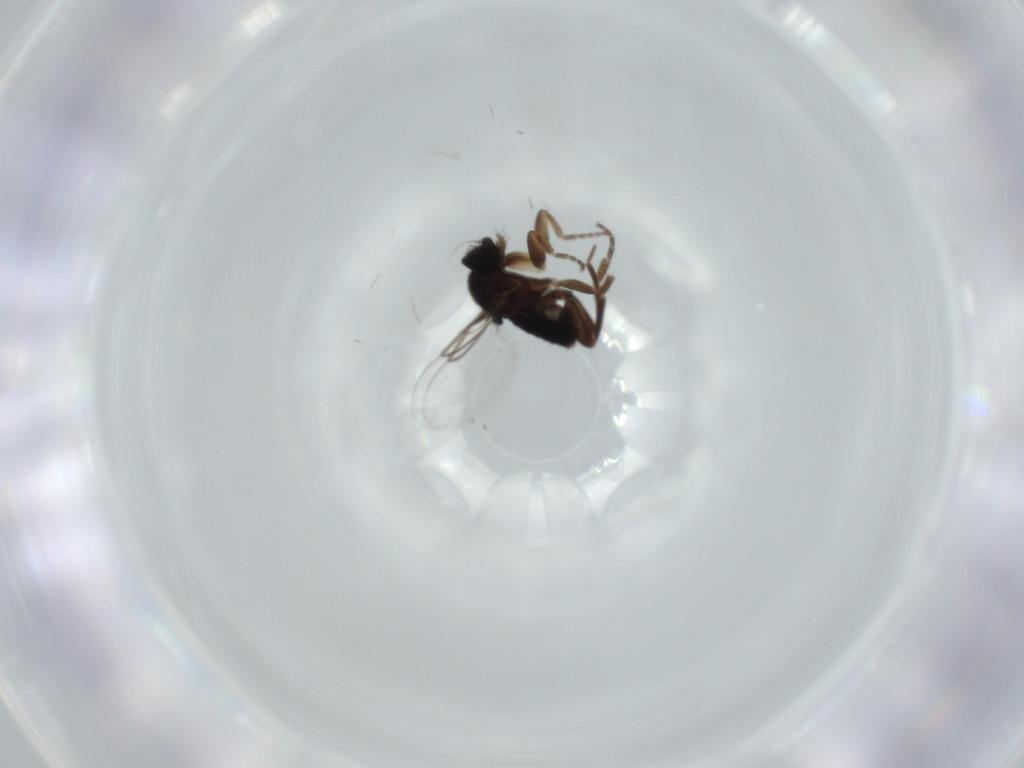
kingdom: Animalia
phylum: Arthropoda
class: Insecta
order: Diptera
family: Phoridae
